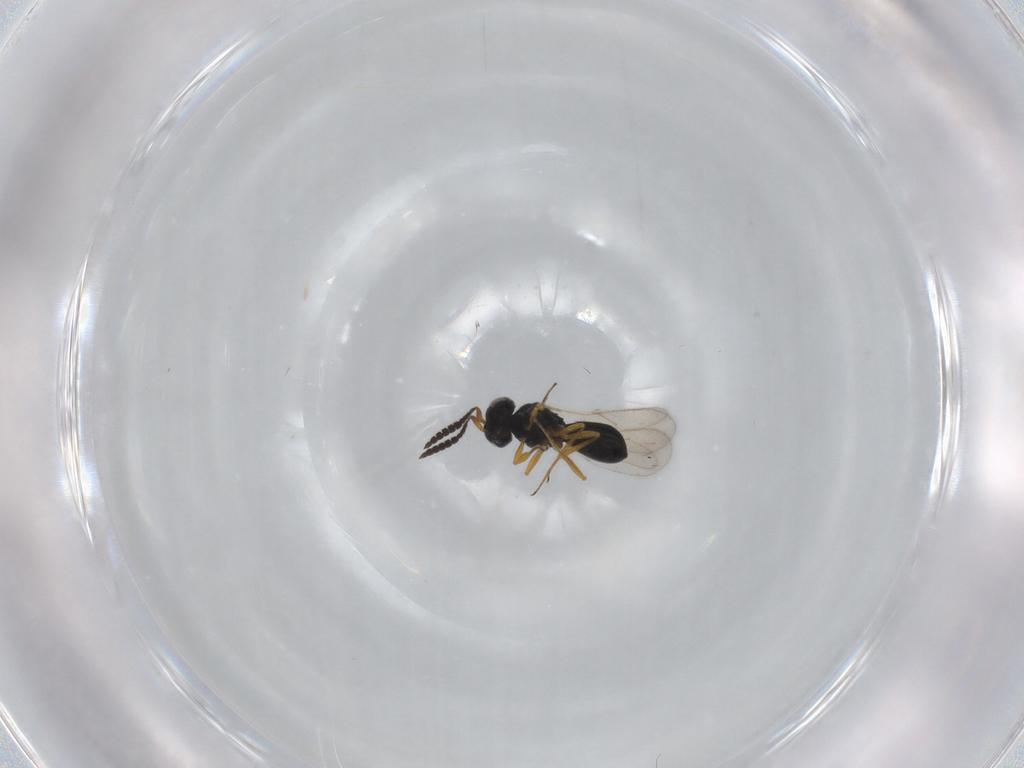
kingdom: Animalia
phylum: Arthropoda
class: Insecta
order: Hymenoptera
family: Scelionidae
